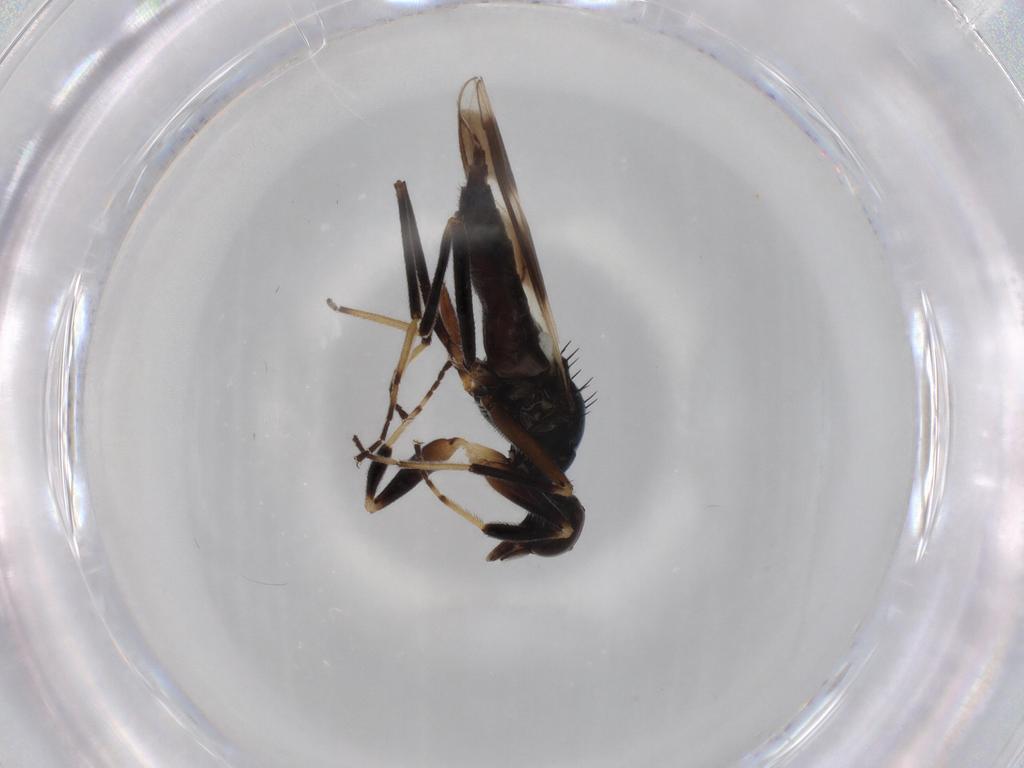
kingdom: Animalia
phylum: Arthropoda
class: Insecta
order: Diptera
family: Hybotidae
